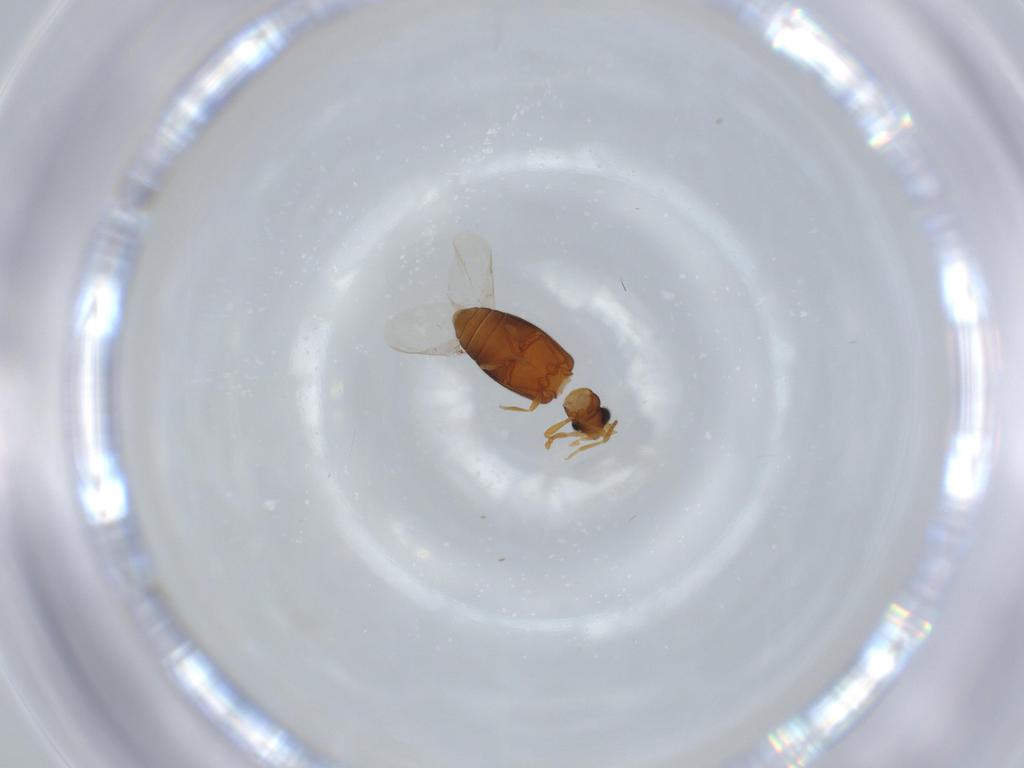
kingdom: Animalia
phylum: Arthropoda
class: Insecta
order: Coleoptera
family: Aderidae
